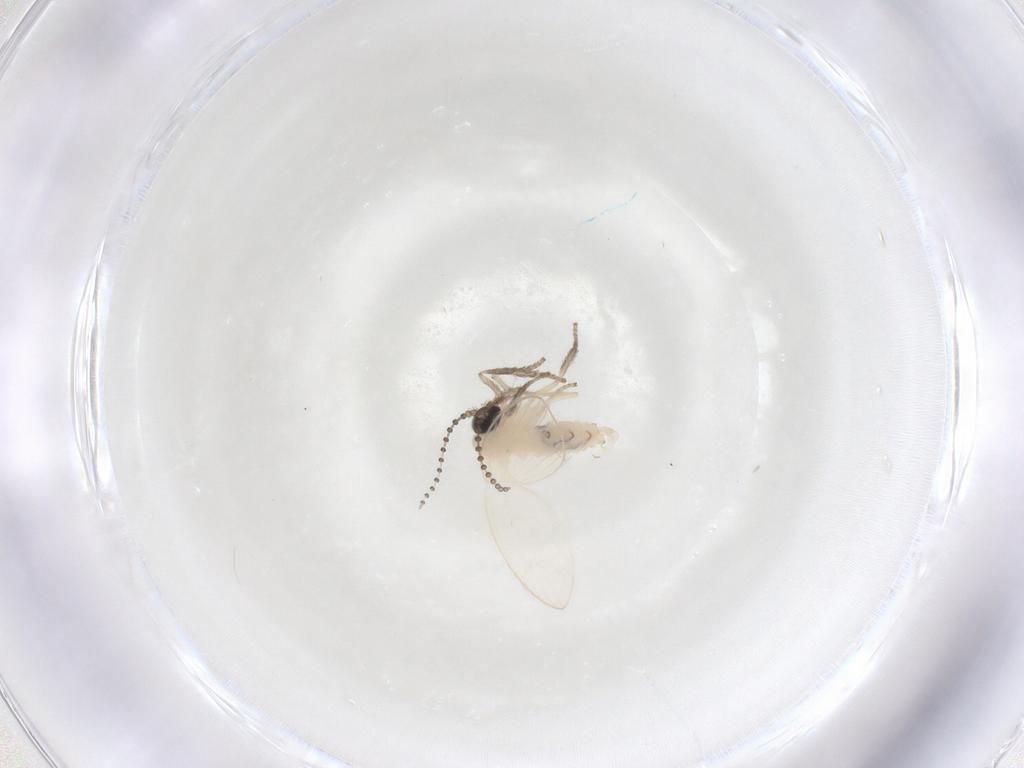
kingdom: Animalia
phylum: Arthropoda
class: Insecta
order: Diptera
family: Psychodidae
